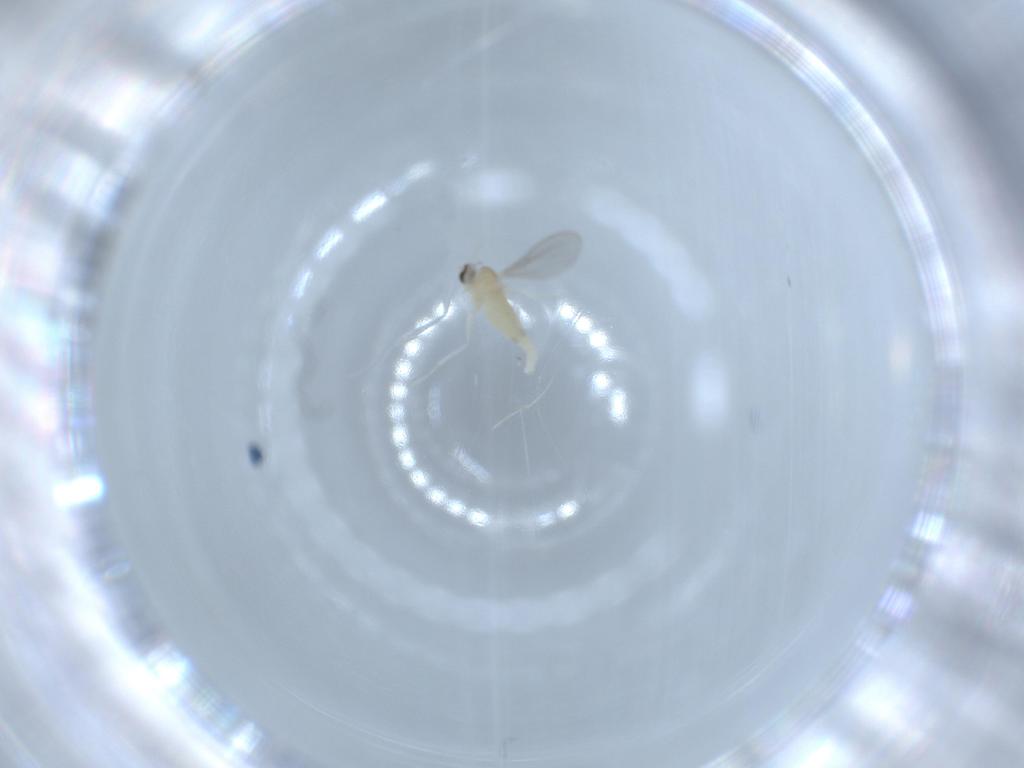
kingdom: Animalia
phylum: Arthropoda
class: Insecta
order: Diptera
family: Cecidomyiidae
